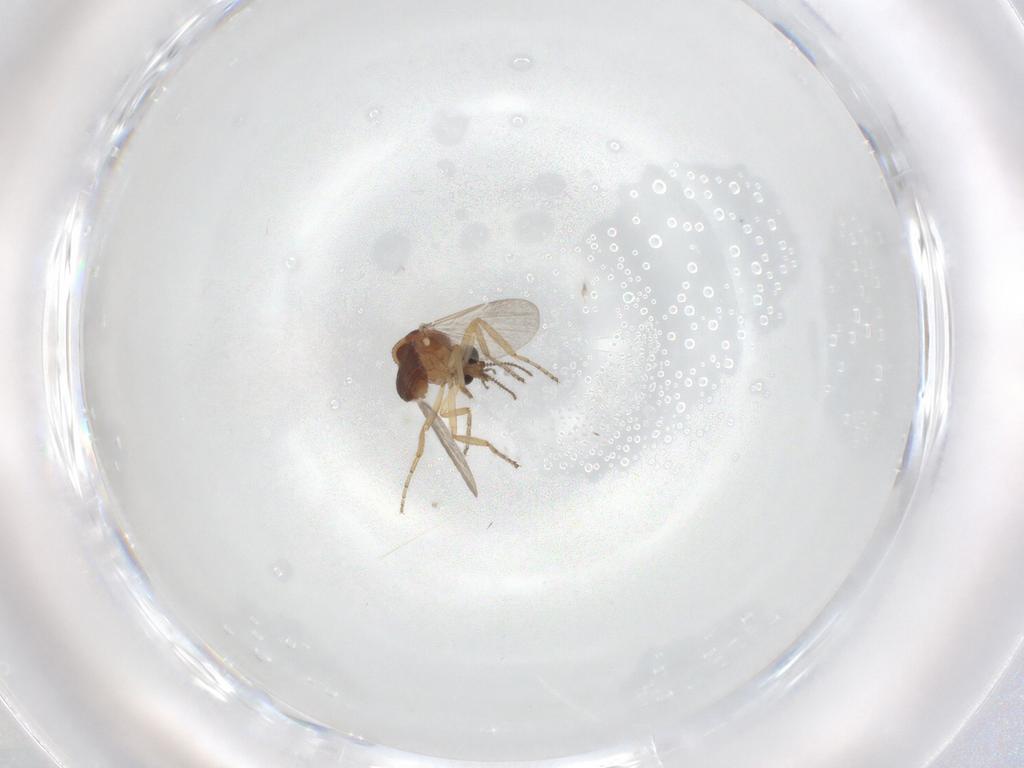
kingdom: Animalia
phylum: Arthropoda
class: Insecta
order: Diptera
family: Ceratopogonidae
